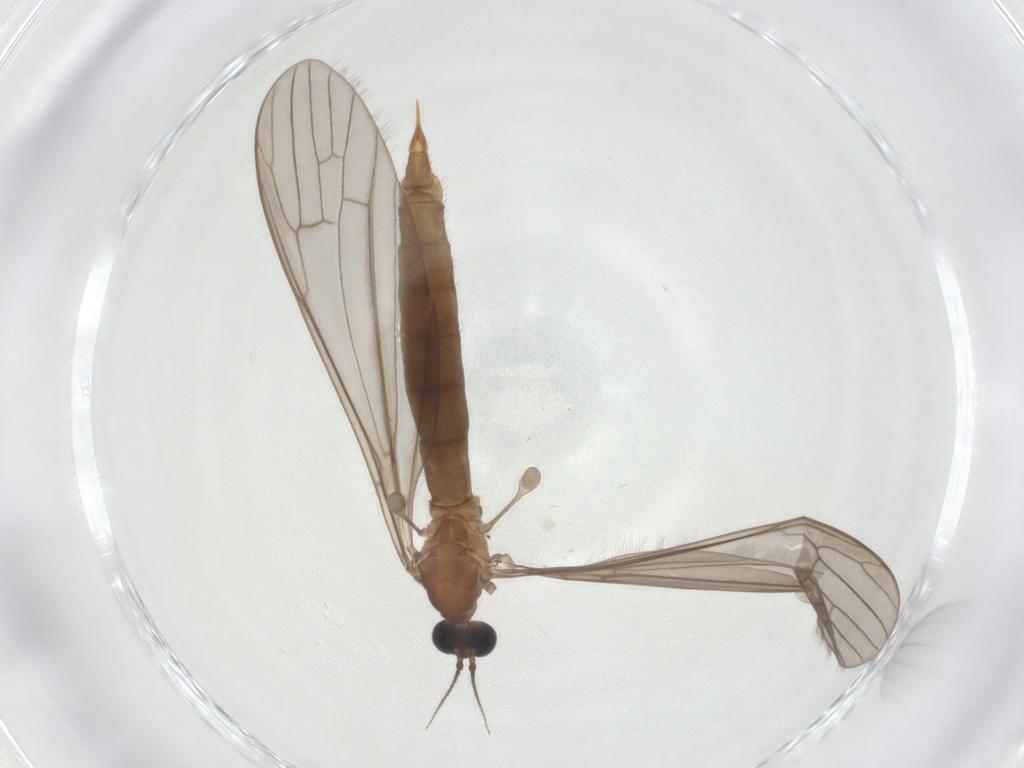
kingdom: Animalia
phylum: Arthropoda
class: Insecta
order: Diptera
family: Limoniidae
